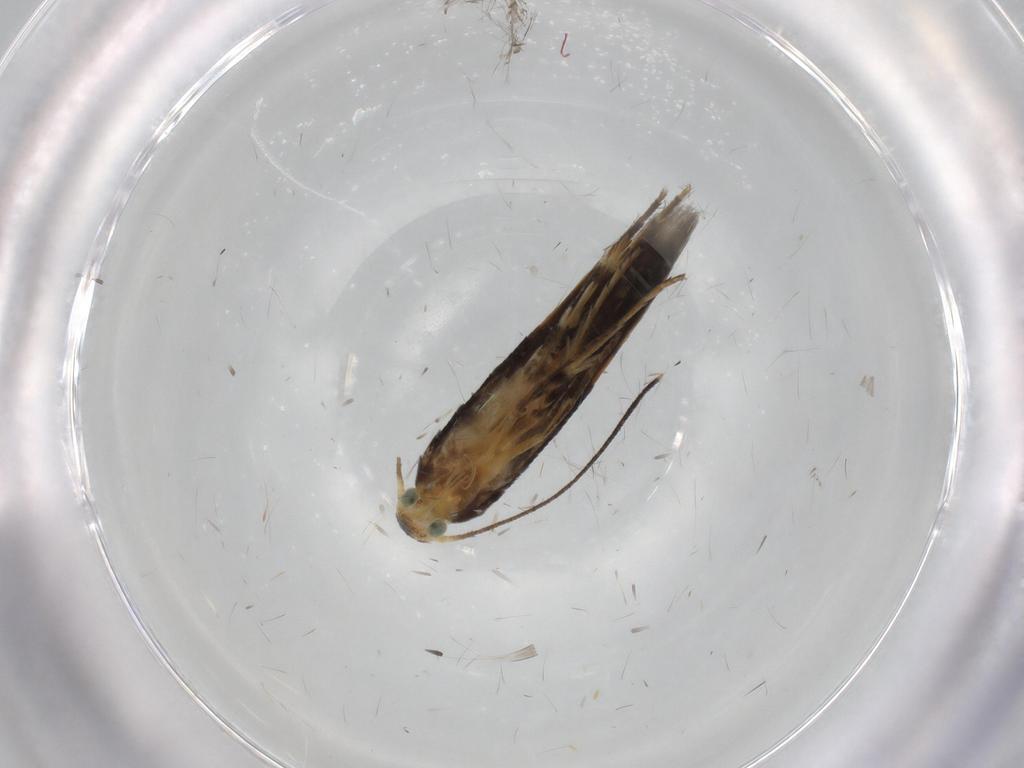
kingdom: Animalia
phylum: Arthropoda
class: Insecta
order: Lepidoptera
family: Heliodinidae
